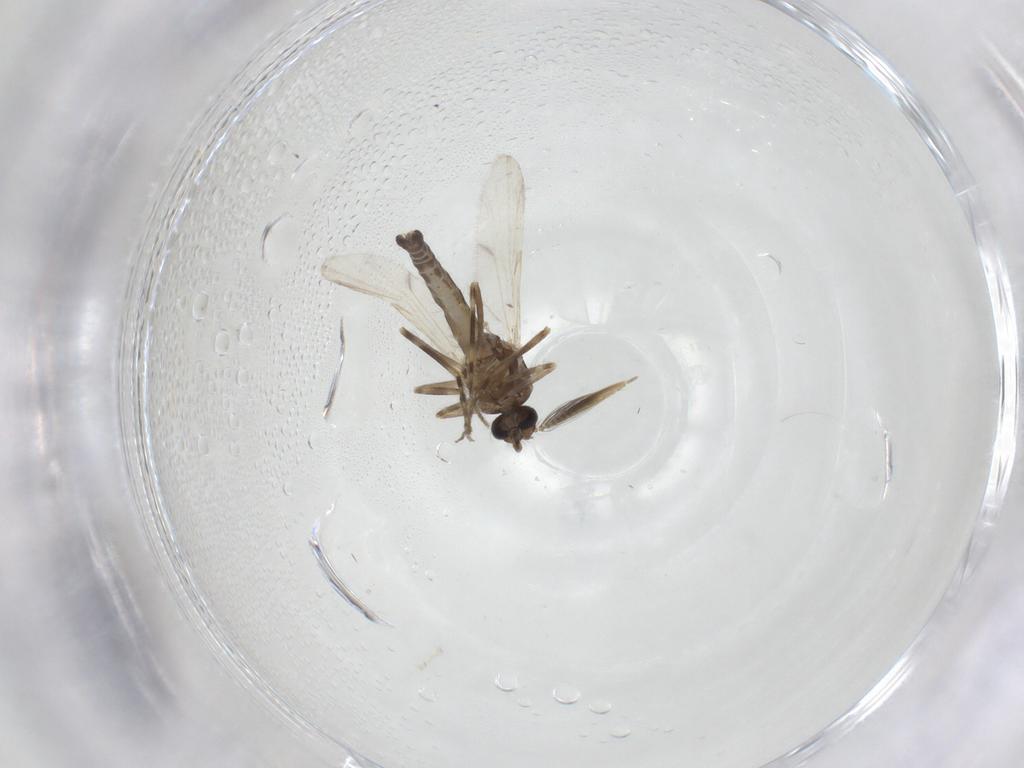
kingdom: Animalia
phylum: Arthropoda
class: Insecta
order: Diptera
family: Ceratopogonidae
